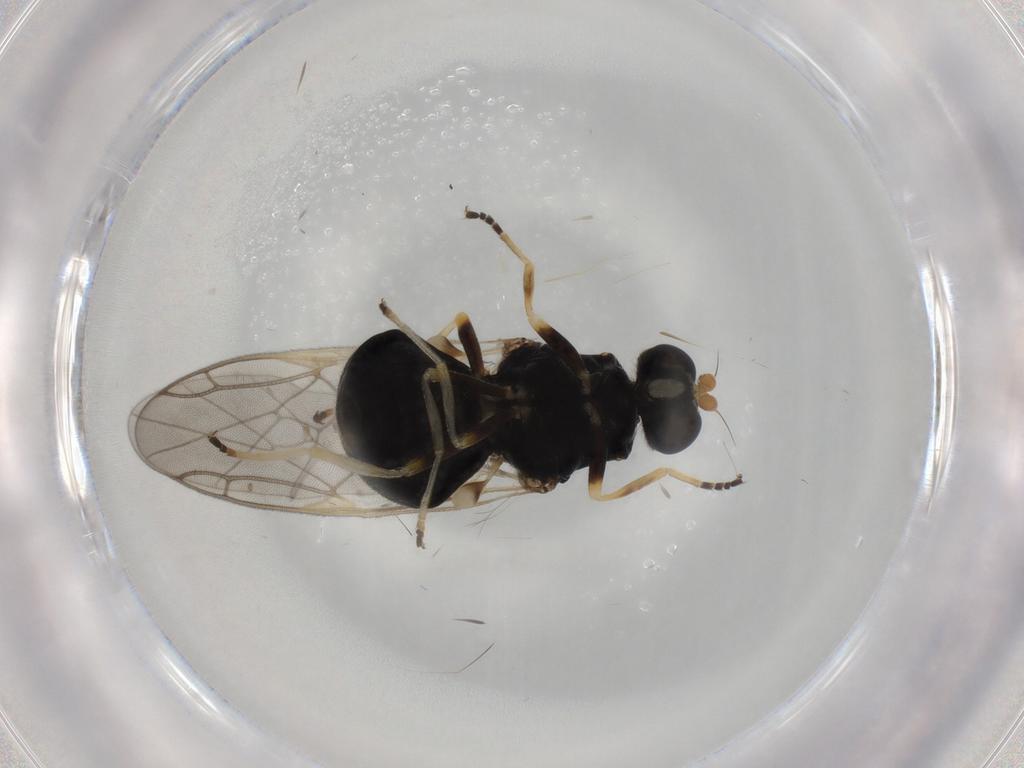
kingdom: Animalia
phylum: Arthropoda
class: Insecta
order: Diptera
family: Stratiomyidae
